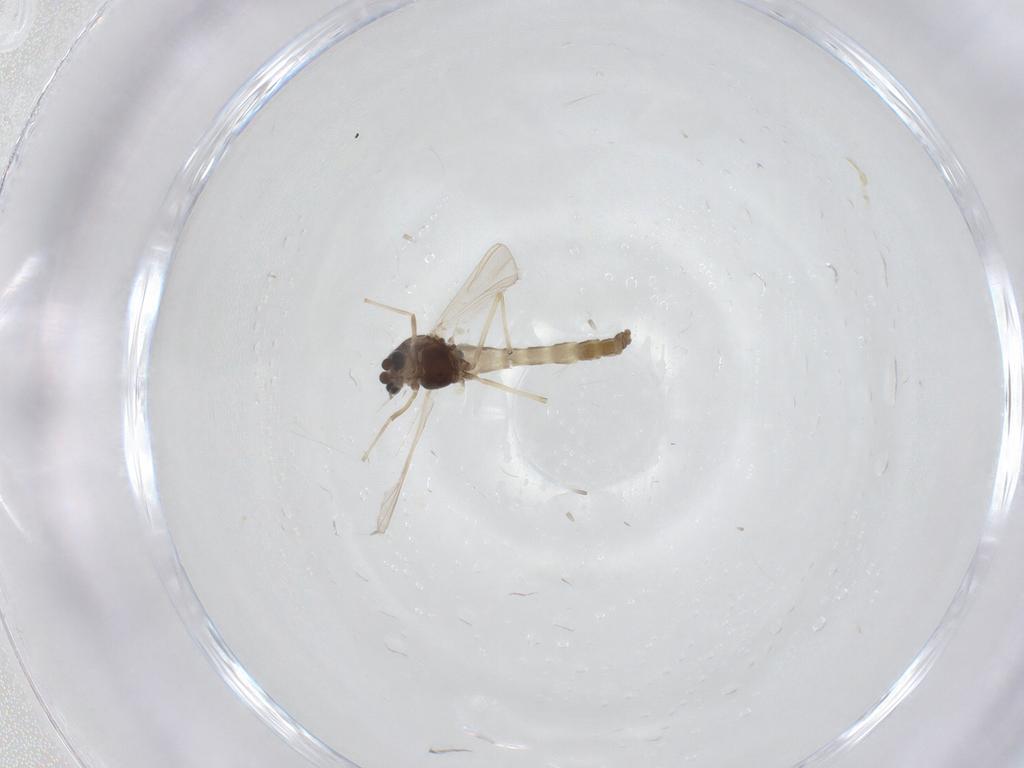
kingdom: Animalia
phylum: Arthropoda
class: Insecta
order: Diptera
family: Chironomidae
